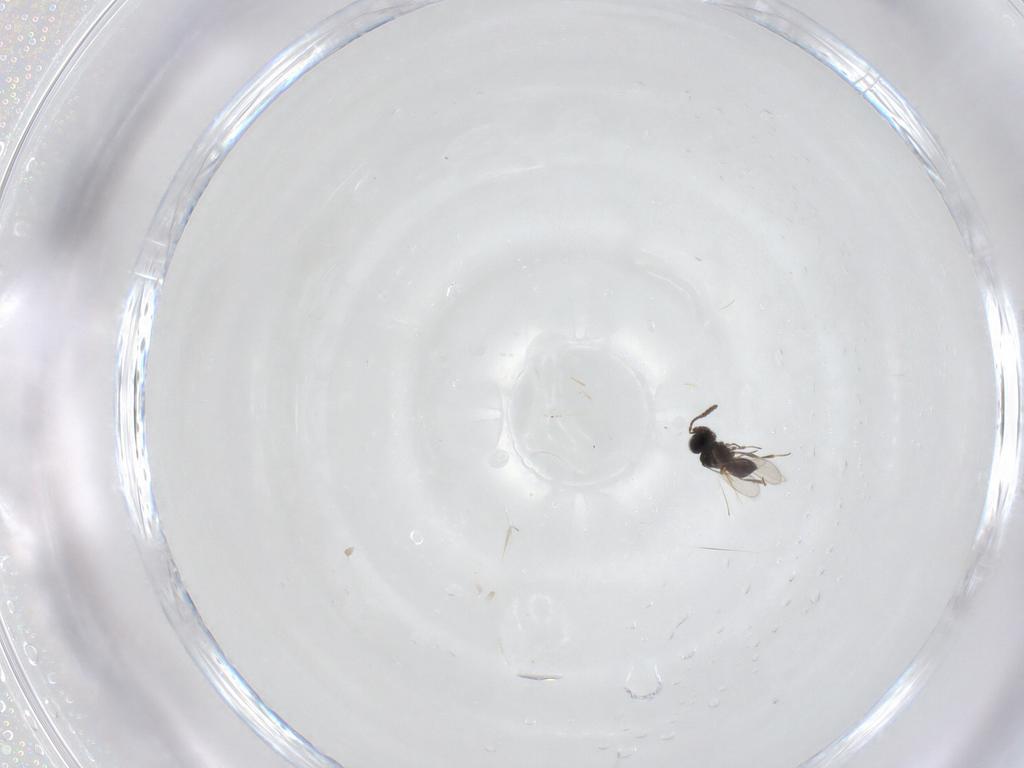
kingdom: Animalia
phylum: Arthropoda
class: Insecta
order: Hymenoptera
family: Scelionidae
